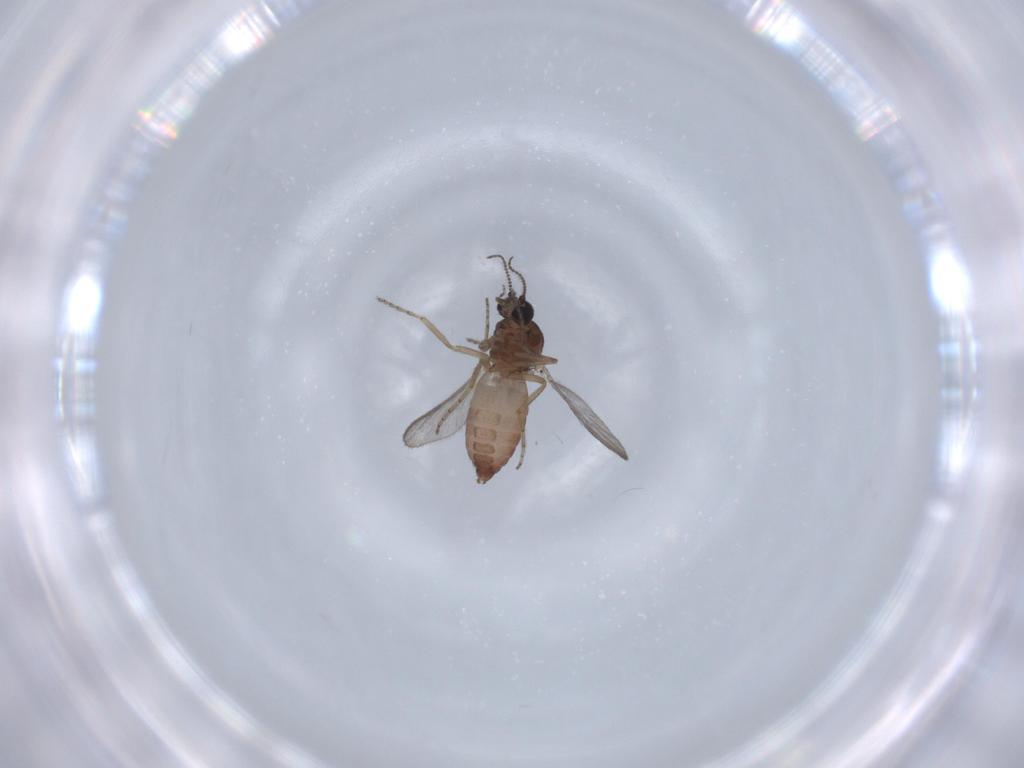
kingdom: Animalia
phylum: Arthropoda
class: Insecta
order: Diptera
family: Ceratopogonidae
